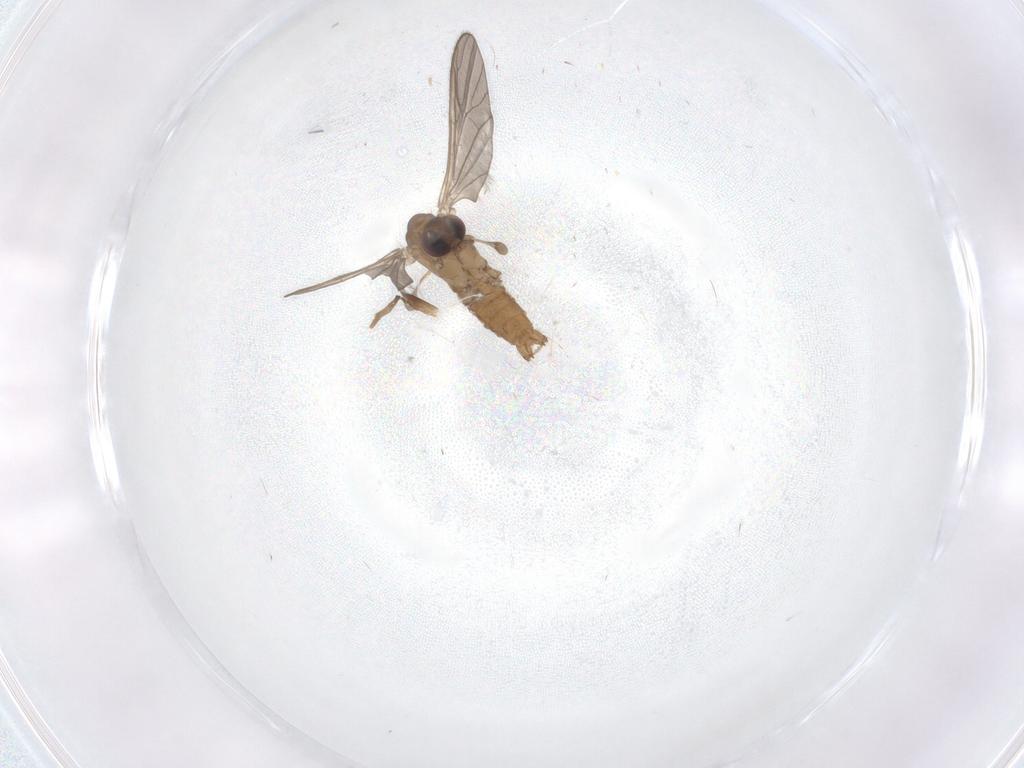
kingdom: Animalia
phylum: Arthropoda
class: Insecta
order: Diptera
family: Limoniidae
